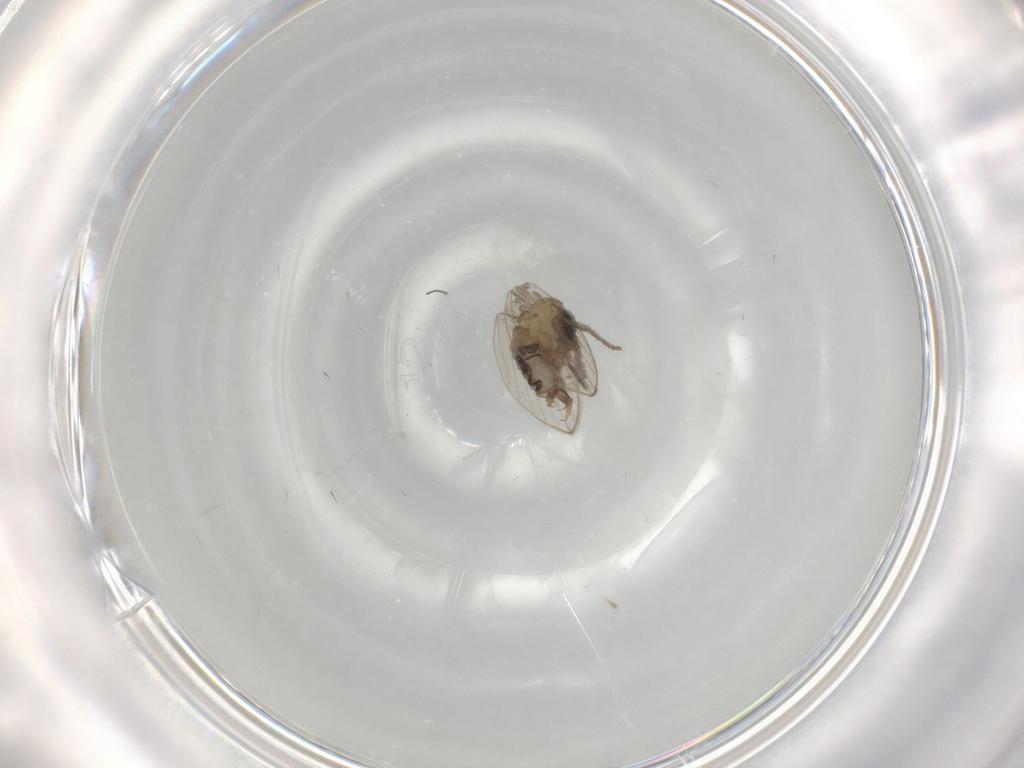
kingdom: Animalia
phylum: Arthropoda
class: Insecta
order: Diptera
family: Psychodidae
